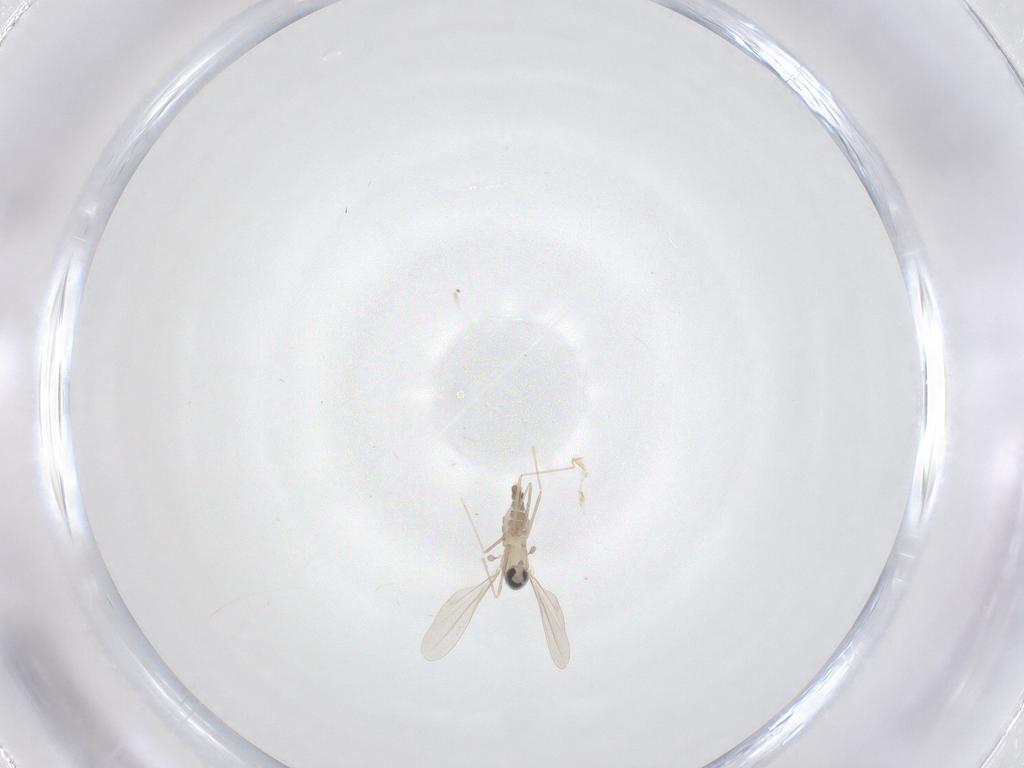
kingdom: Animalia
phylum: Arthropoda
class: Insecta
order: Diptera
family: Cecidomyiidae
